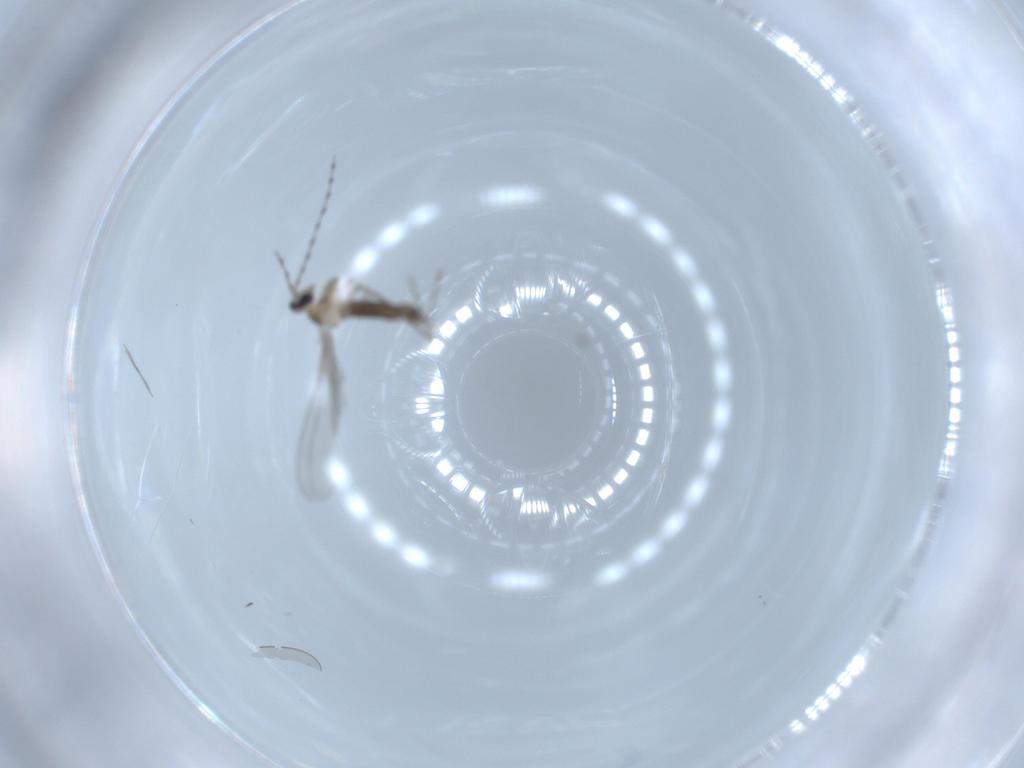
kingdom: Animalia
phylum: Arthropoda
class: Insecta
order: Diptera
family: Cecidomyiidae
